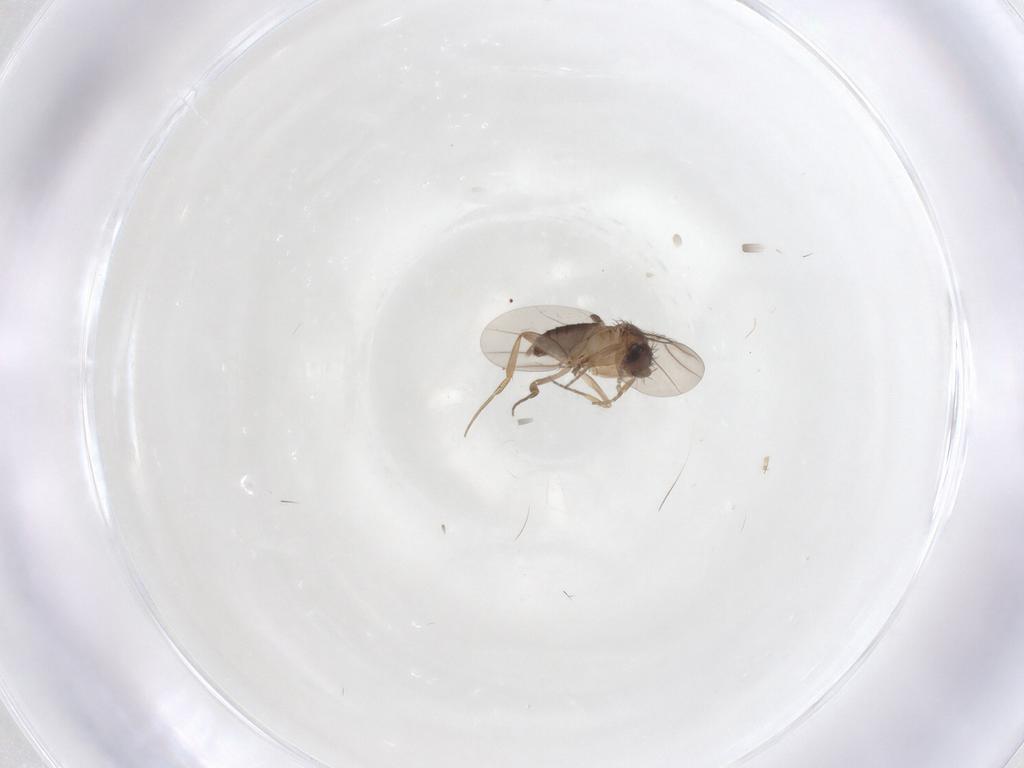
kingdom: Animalia
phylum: Arthropoda
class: Insecta
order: Diptera
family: Phoridae
